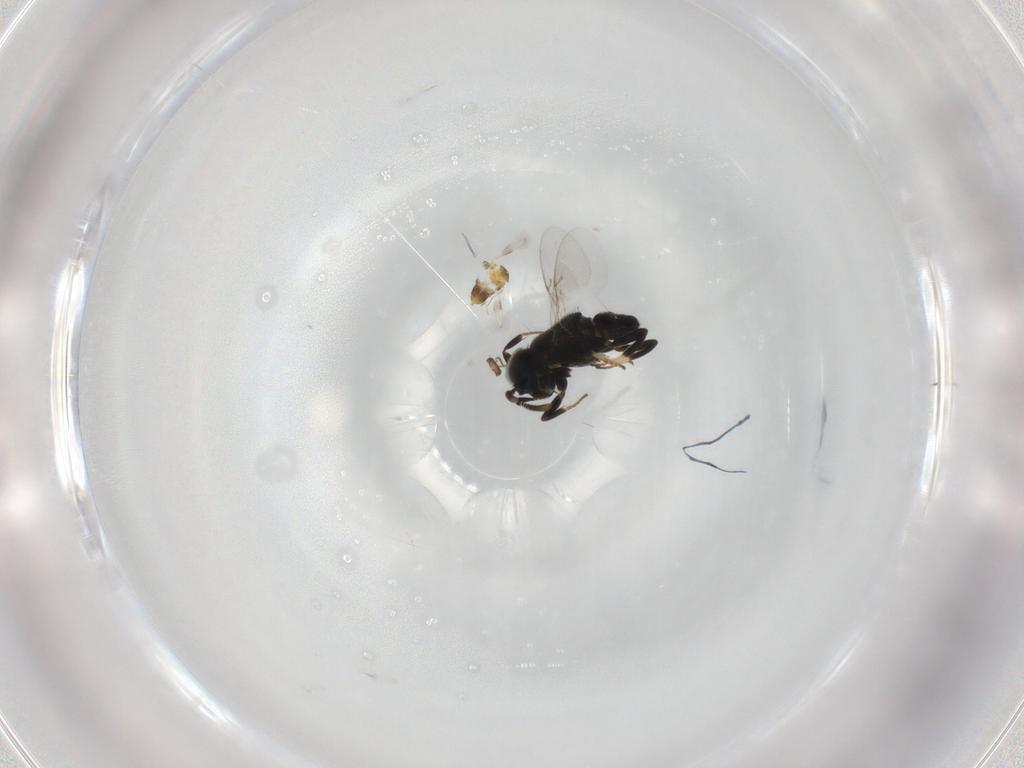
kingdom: Animalia
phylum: Arthropoda
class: Insecta
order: Hymenoptera
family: Encyrtidae
